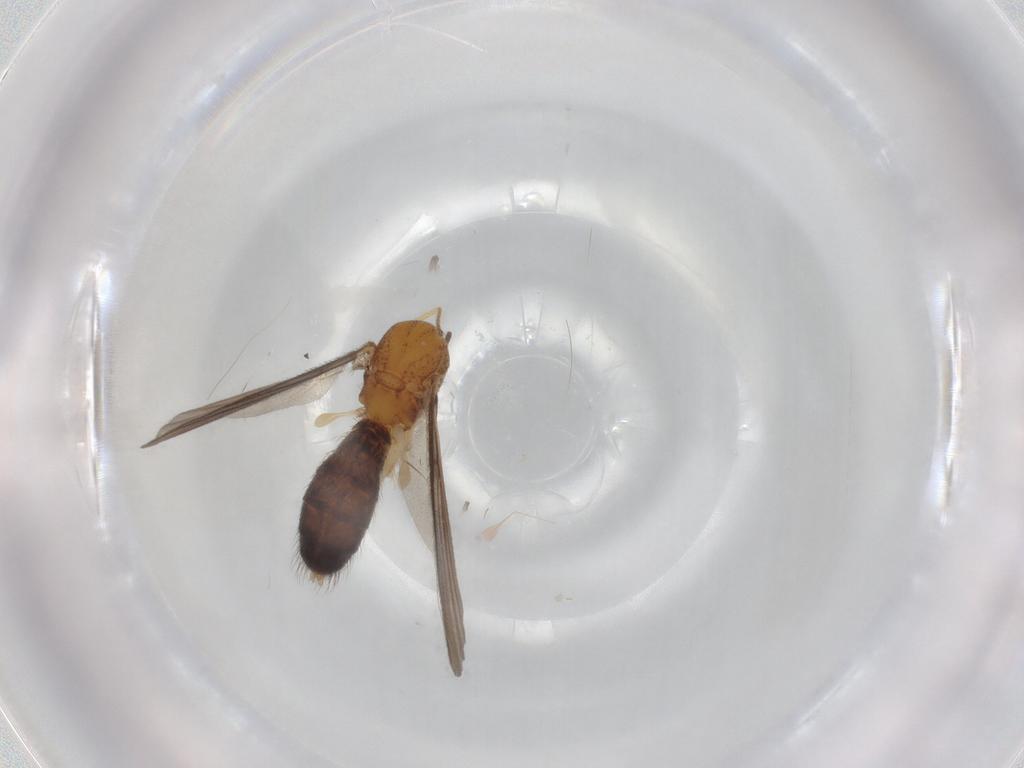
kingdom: Animalia
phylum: Arthropoda
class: Insecta
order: Diptera
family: Mycetophilidae
